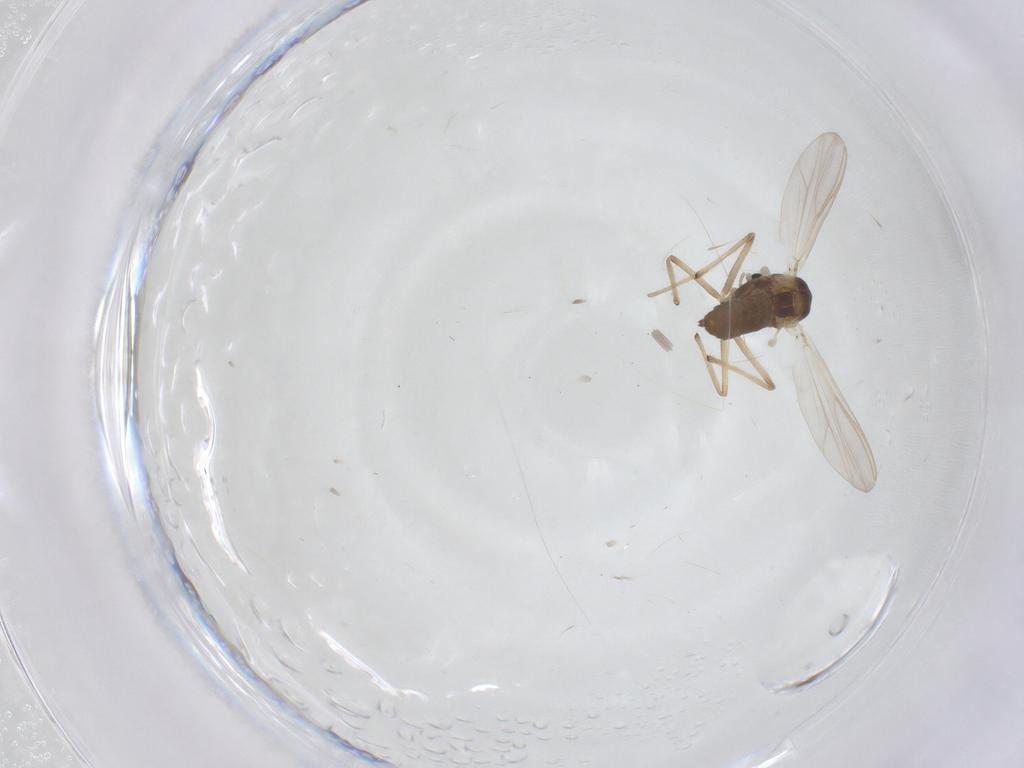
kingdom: Animalia
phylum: Arthropoda
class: Insecta
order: Diptera
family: Chironomidae
